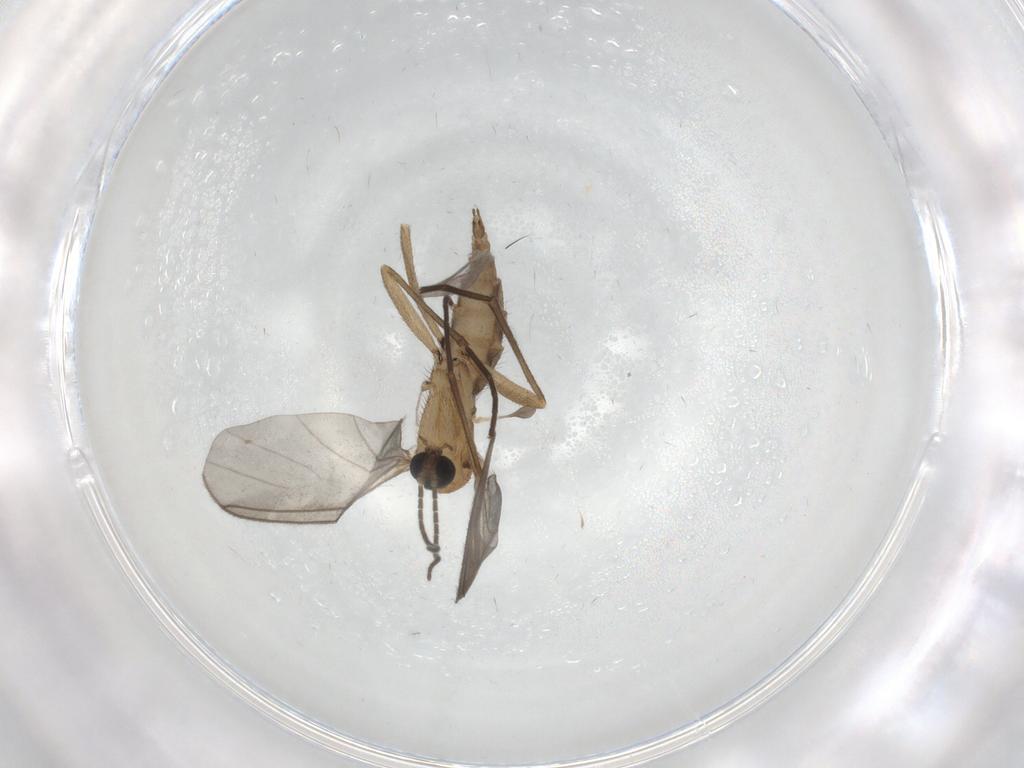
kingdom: Animalia
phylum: Arthropoda
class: Insecta
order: Diptera
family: Sciaridae
